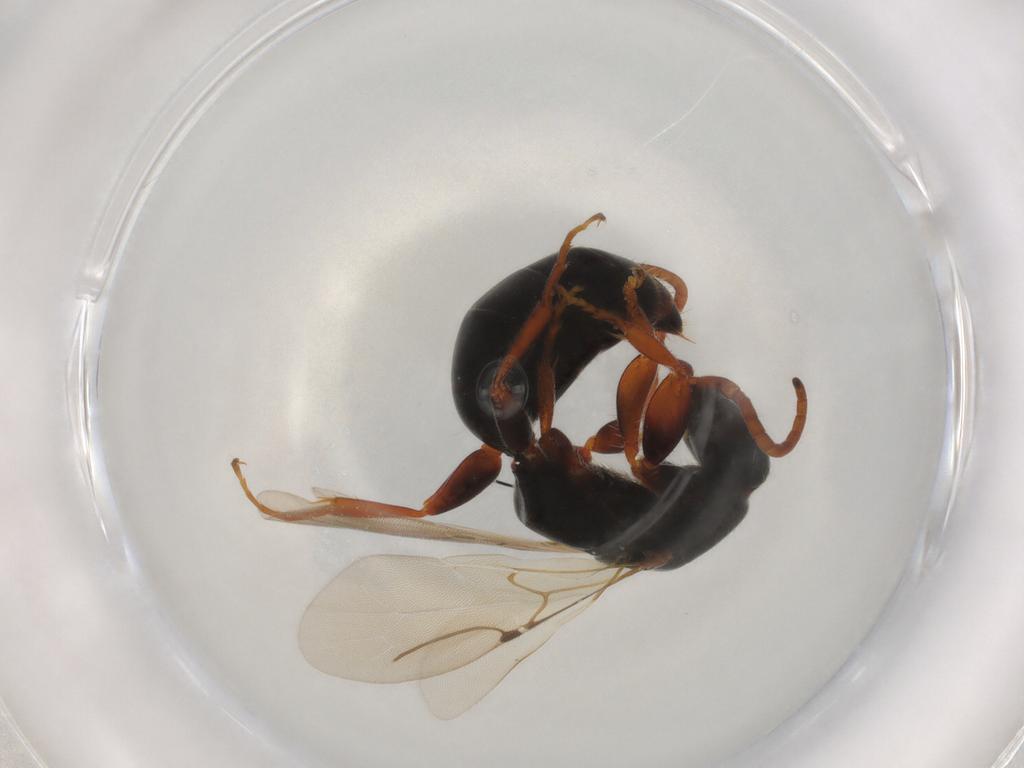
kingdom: Animalia
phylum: Arthropoda
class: Insecta
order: Hymenoptera
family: Bethylidae
